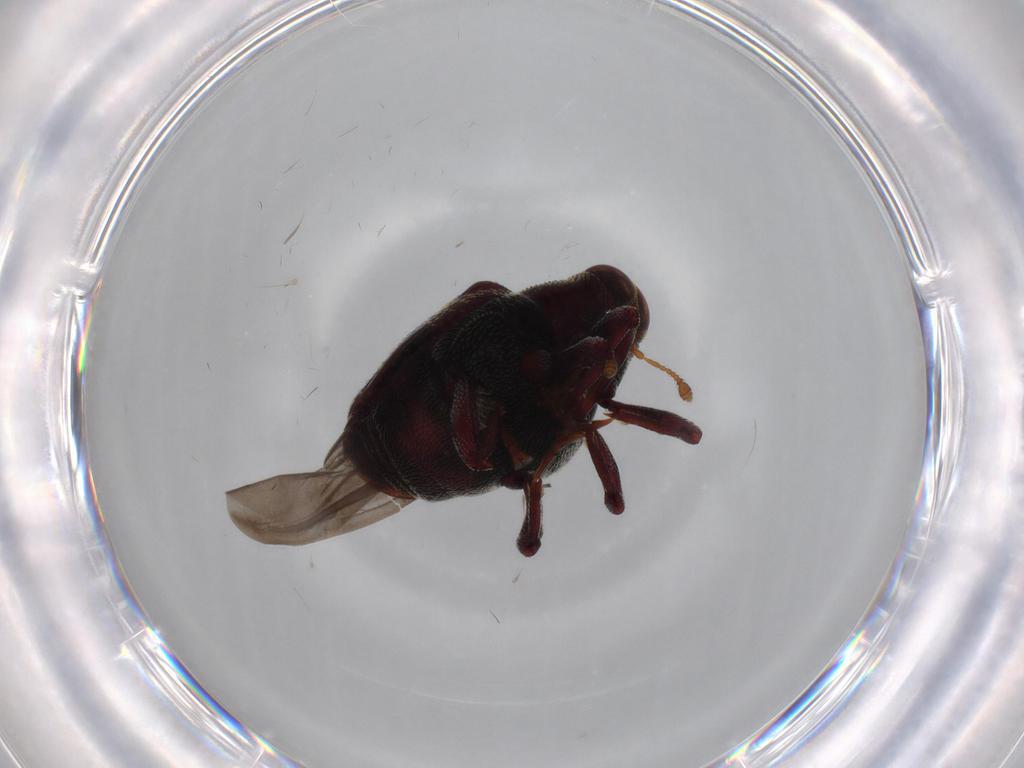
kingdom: Animalia
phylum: Arthropoda
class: Insecta
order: Coleoptera
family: Curculionidae
